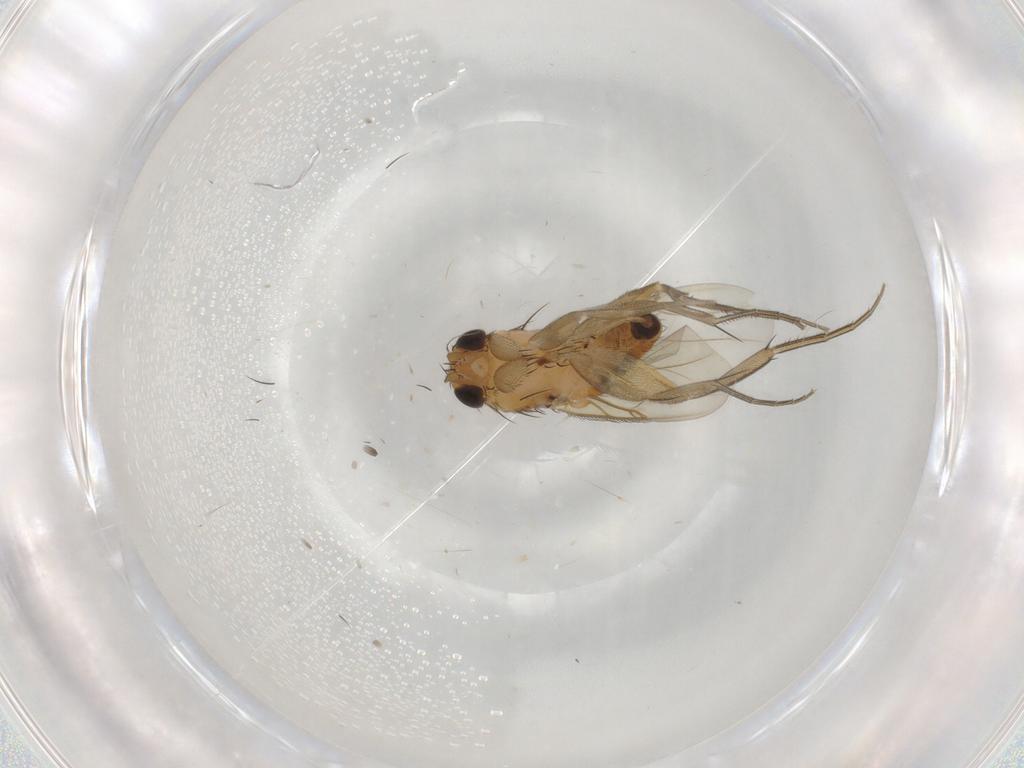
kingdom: Animalia
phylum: Arthropoda
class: Insecta
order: Diptera
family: Phoridae
